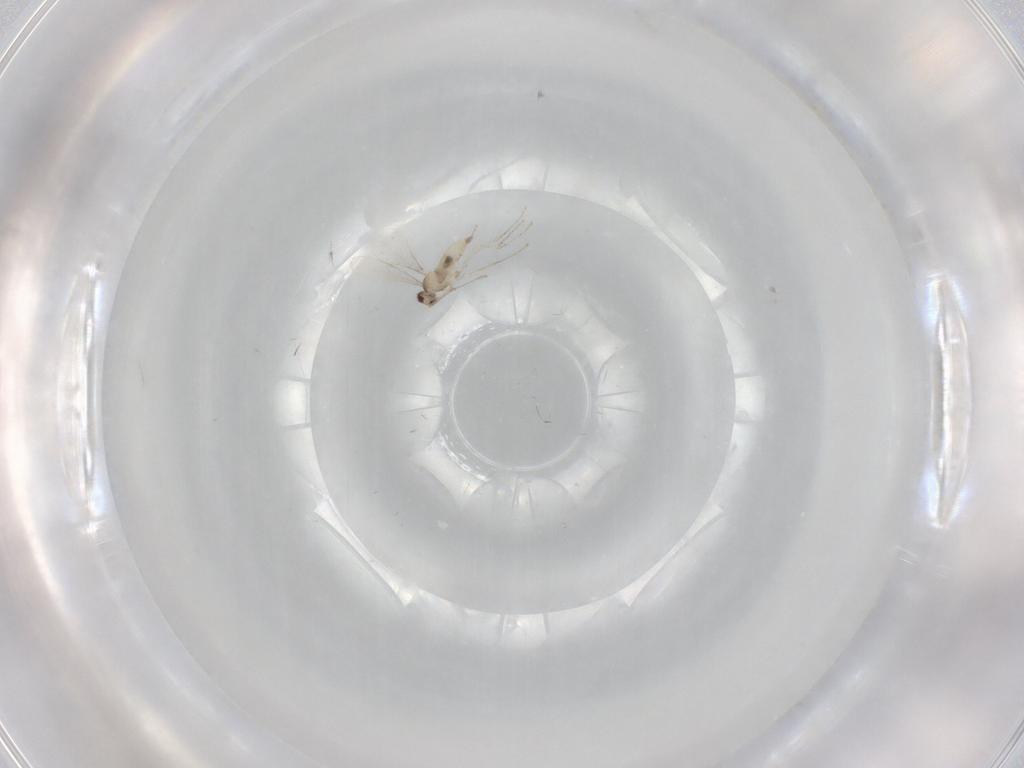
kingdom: Animalia
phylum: Arthropoda
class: Insecta
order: Diptera
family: Cecidomyiidae
